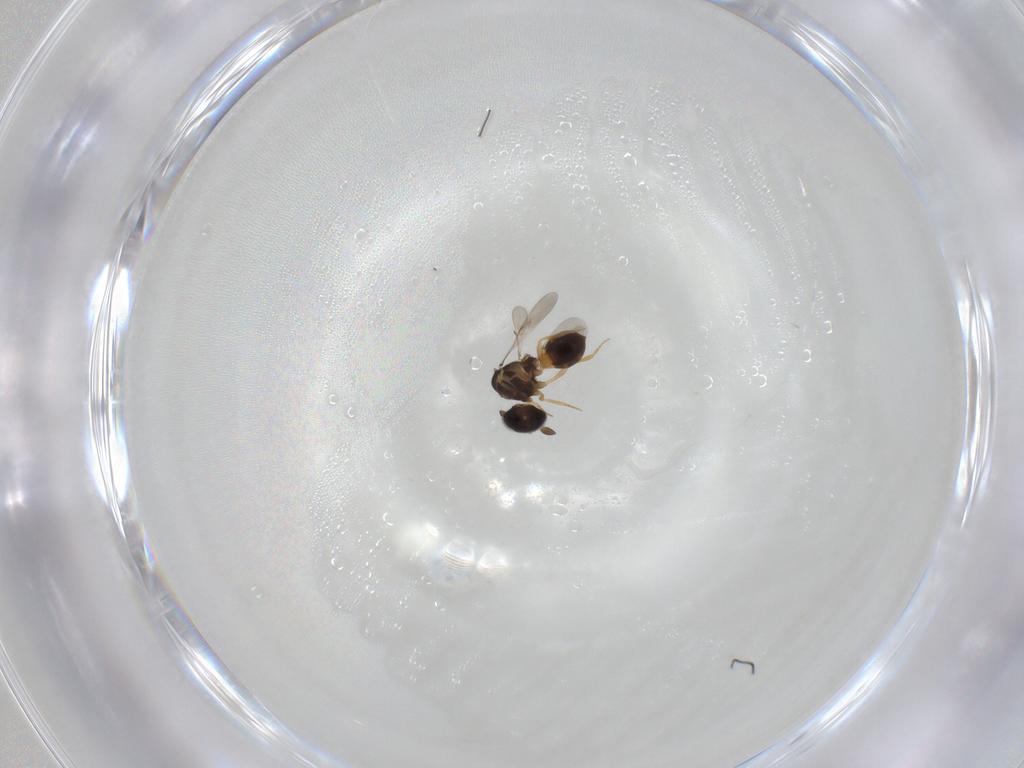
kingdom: Animalia
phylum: Arthropoda
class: Insecta
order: Hymenoptera
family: Scelionidae
